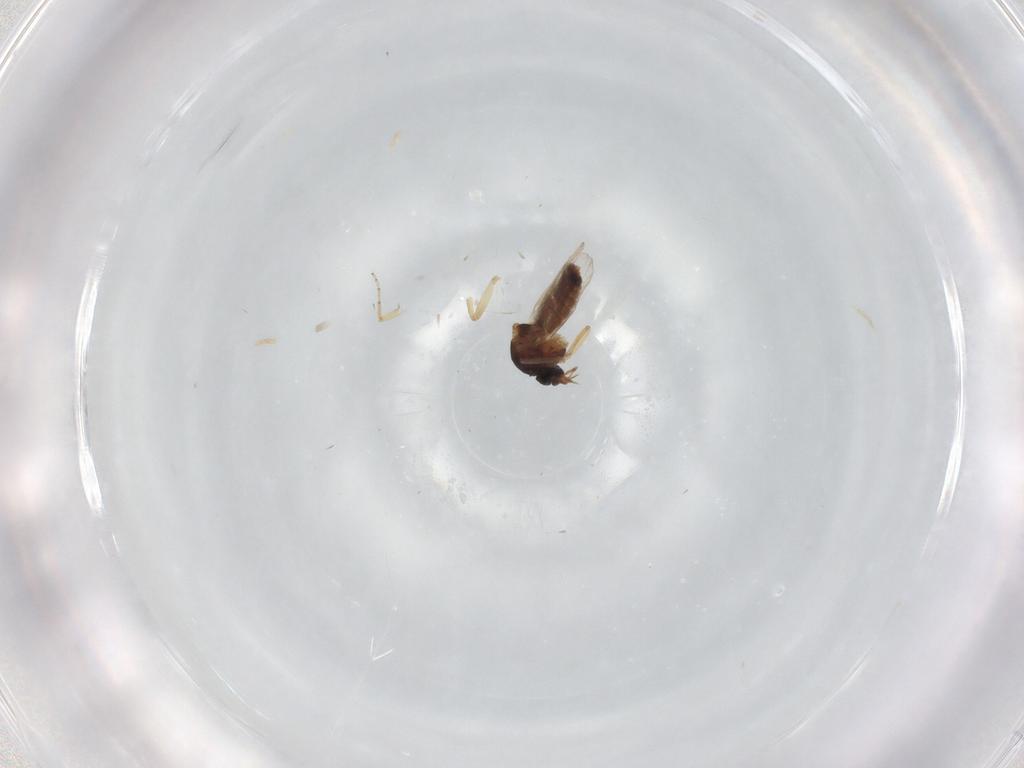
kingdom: Animalia
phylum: Arthropoda
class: Insecta
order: Diptera
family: Ceratopogonidae
